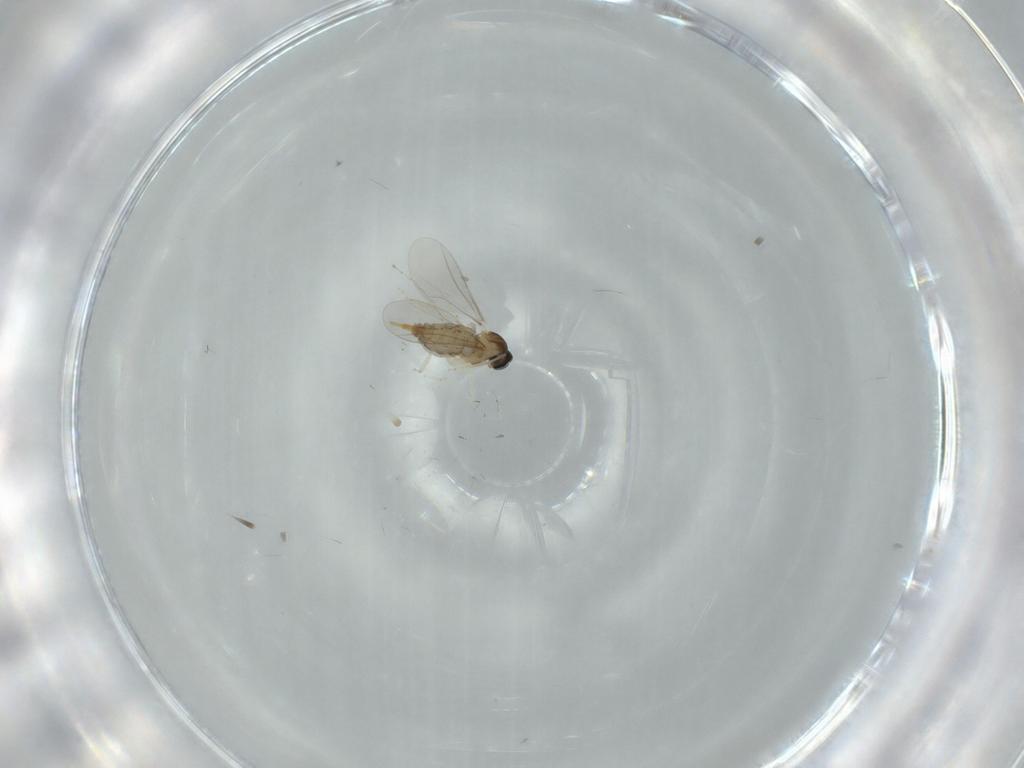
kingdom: Animalia
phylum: Arthropoda
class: Insecta
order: Diptera
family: Cecidomyiidae
